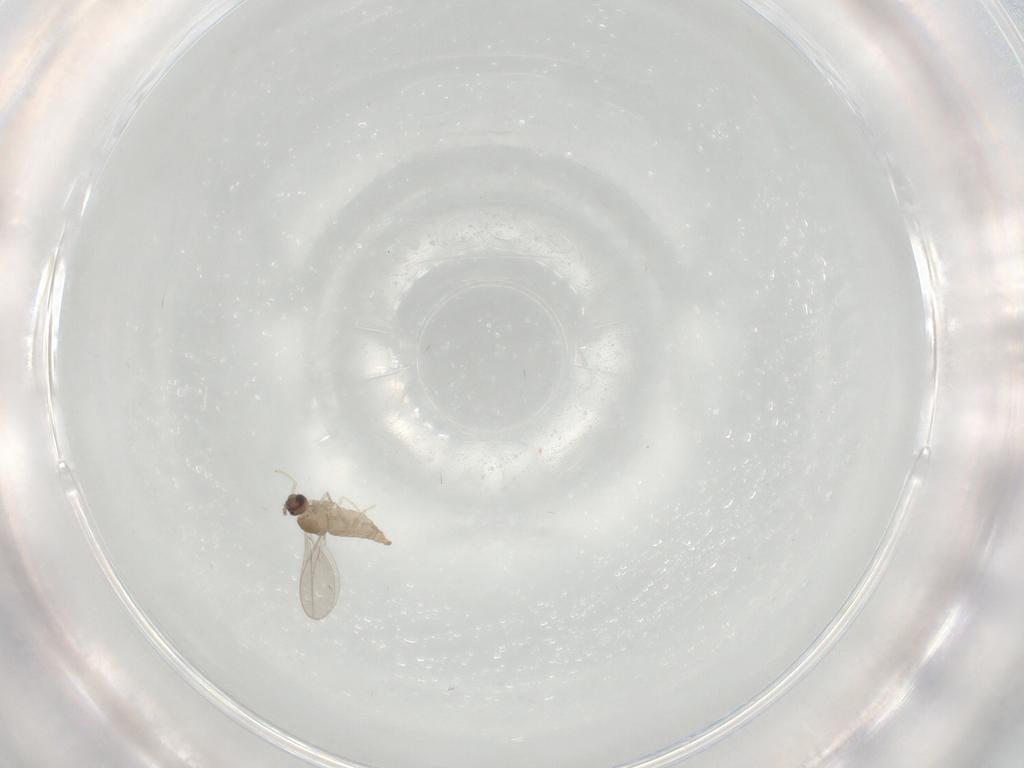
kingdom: Animalia
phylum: Arthropoda
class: Insecta
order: Diptera
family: Cecidomyiidae
